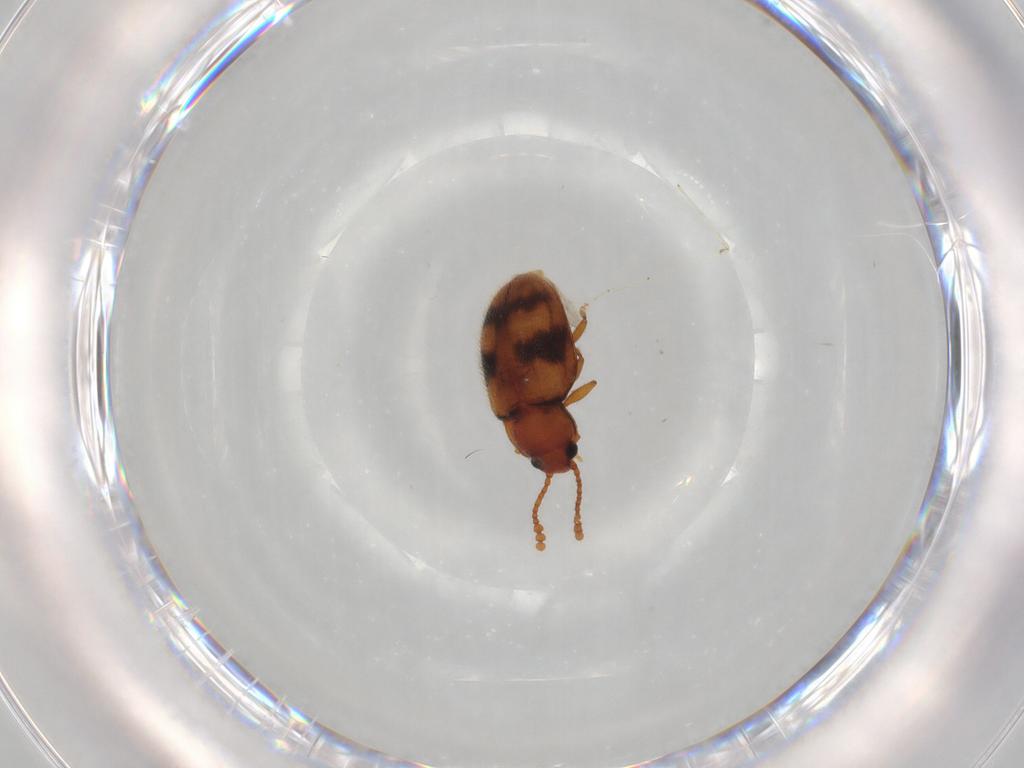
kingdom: Animalia
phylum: Arthropoda
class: Insecta
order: Coleoptera
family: Erotylidae
